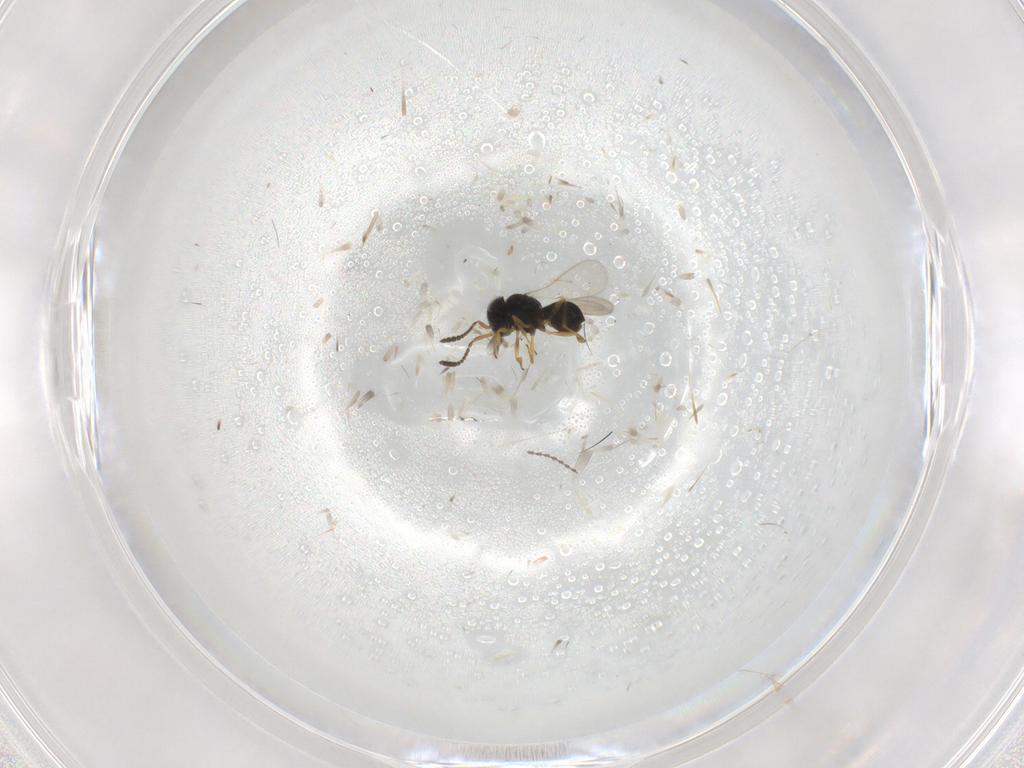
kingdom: Animalia
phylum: Arthropoda
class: Insecta
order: Hymenoptera
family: Scelionidae
